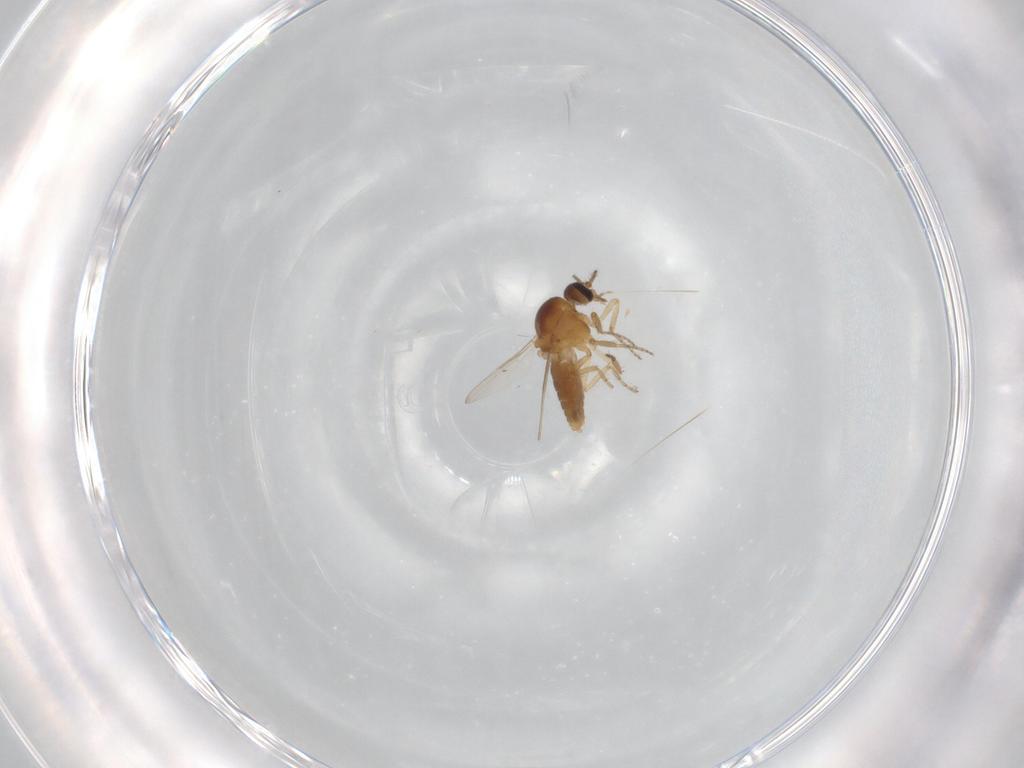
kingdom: Animalia
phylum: Arthropoda
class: Insecta
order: Diptera
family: Ceratopogonidae
